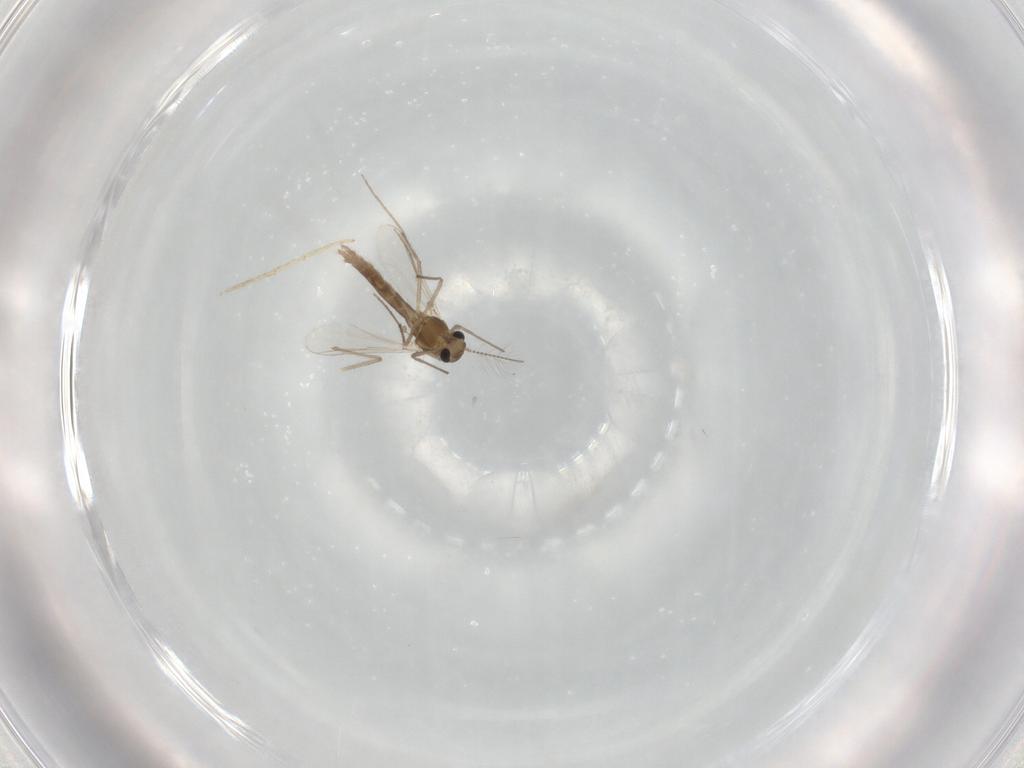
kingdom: Animalia
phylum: Arthropoda
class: Insecta
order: Diptera
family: Chironomidae
